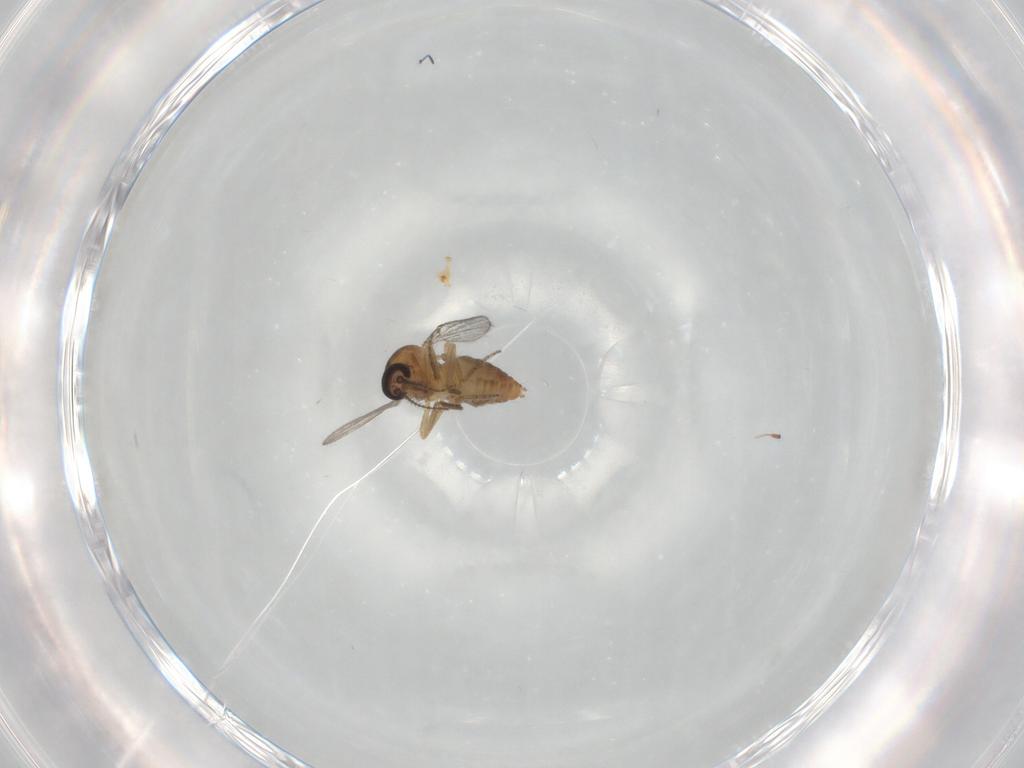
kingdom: Animalia
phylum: Arthropoda
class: Insecta
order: Diptera
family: Ceratopogonidae
